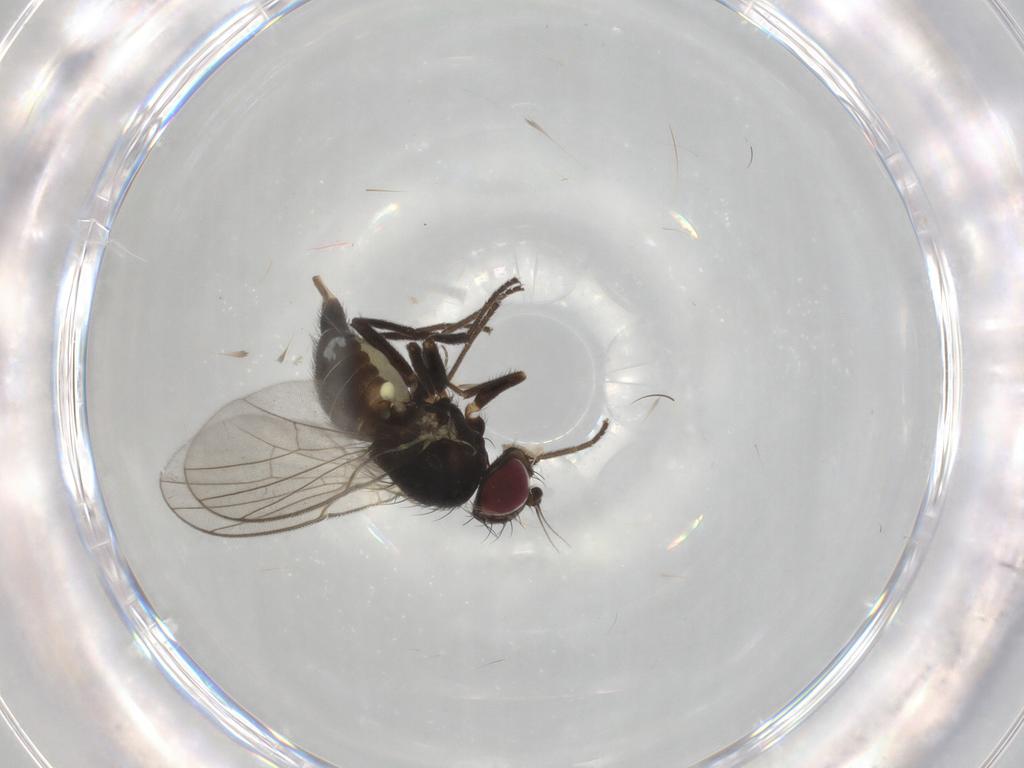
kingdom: Animalia
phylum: Arthropoda
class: Insecta
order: Diptera
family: Agromyzidae
